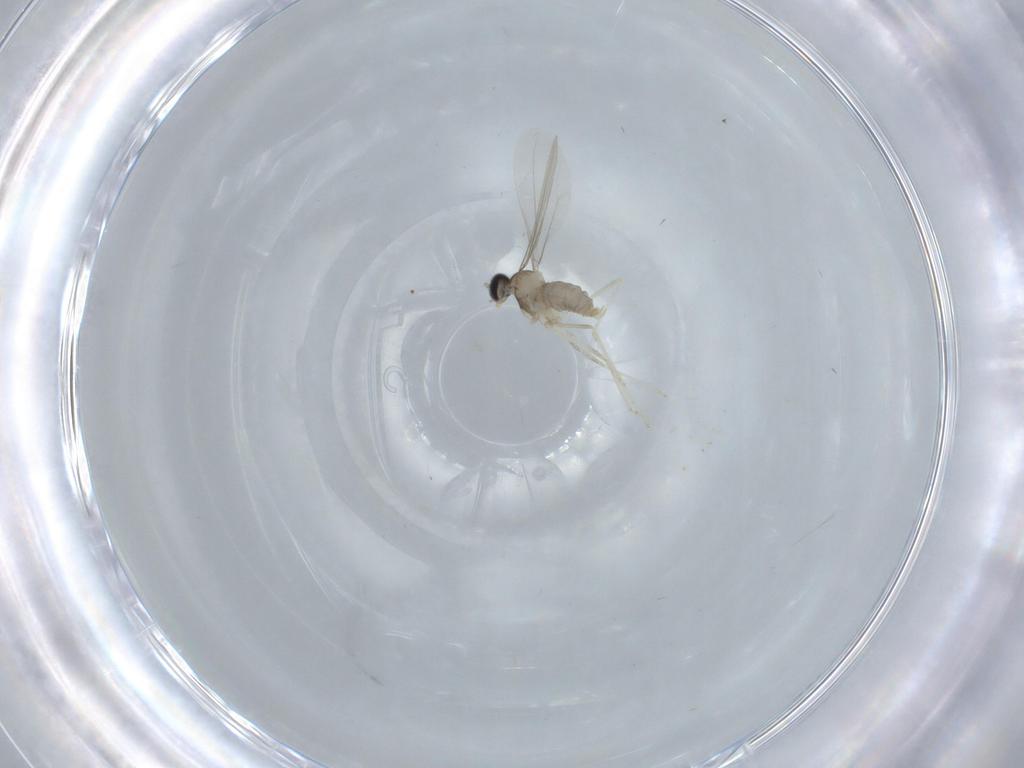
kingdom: Animalia
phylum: Arthropoda
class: Insecta
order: Diptera
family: Cecidomyiidae
